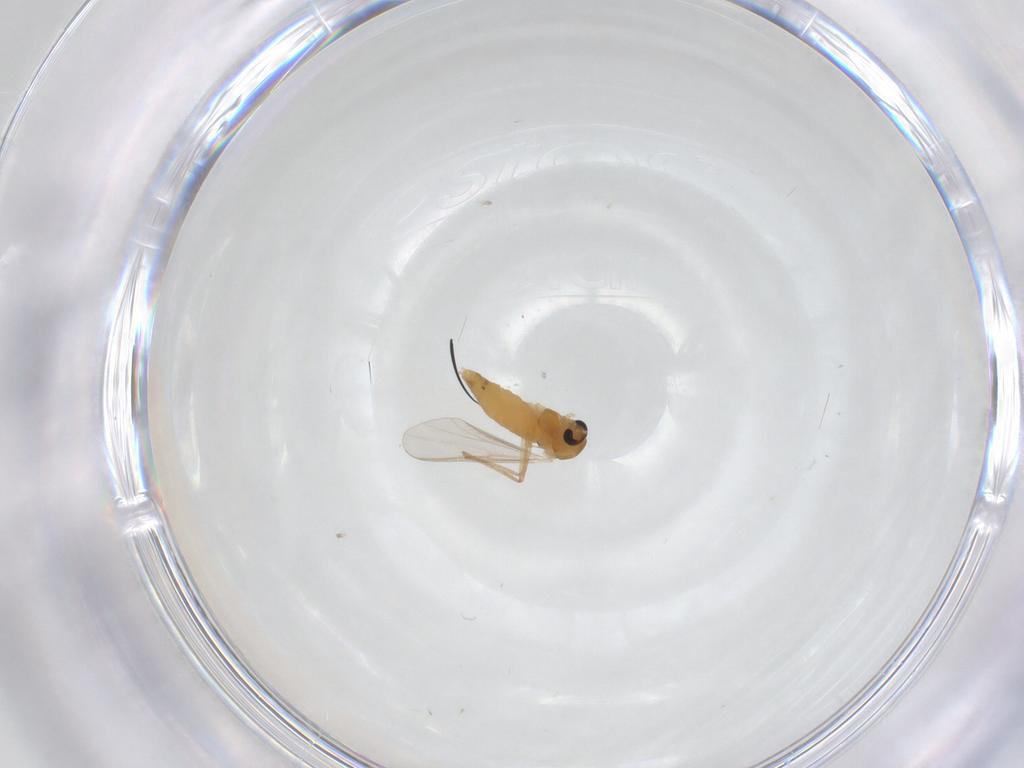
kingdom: Animalia
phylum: Arthropoda
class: Insecta
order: Diptera
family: Chironomidae
